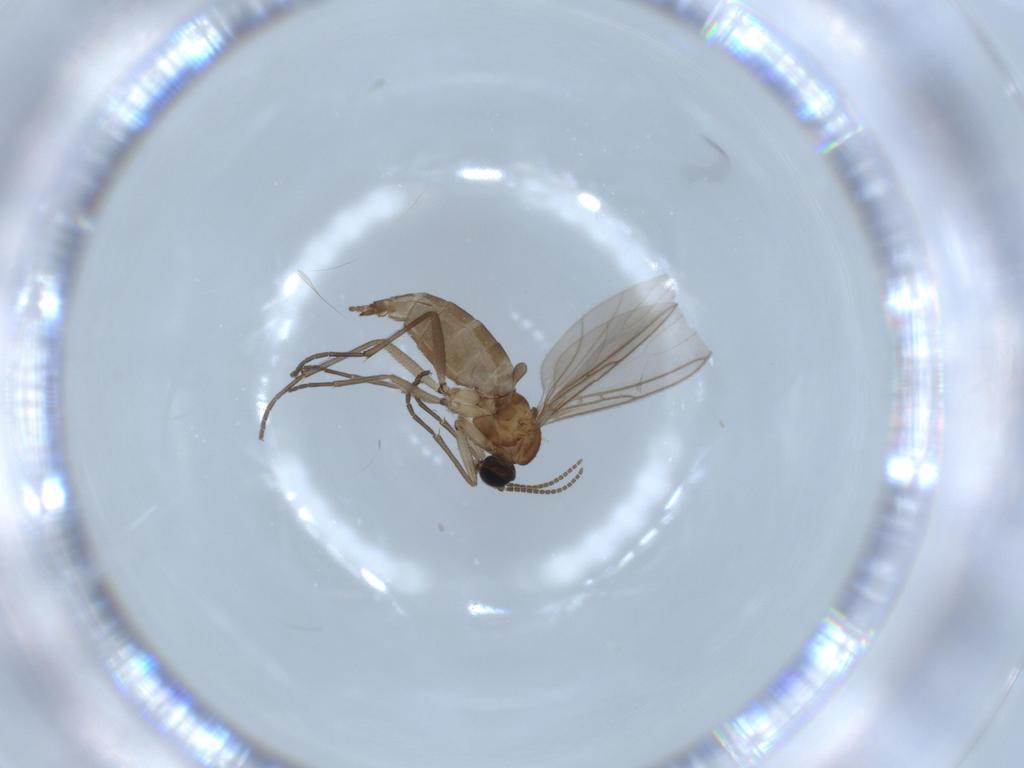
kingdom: Animalia
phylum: Arthropoda
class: Insecta
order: Diptera
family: Sciaridae
